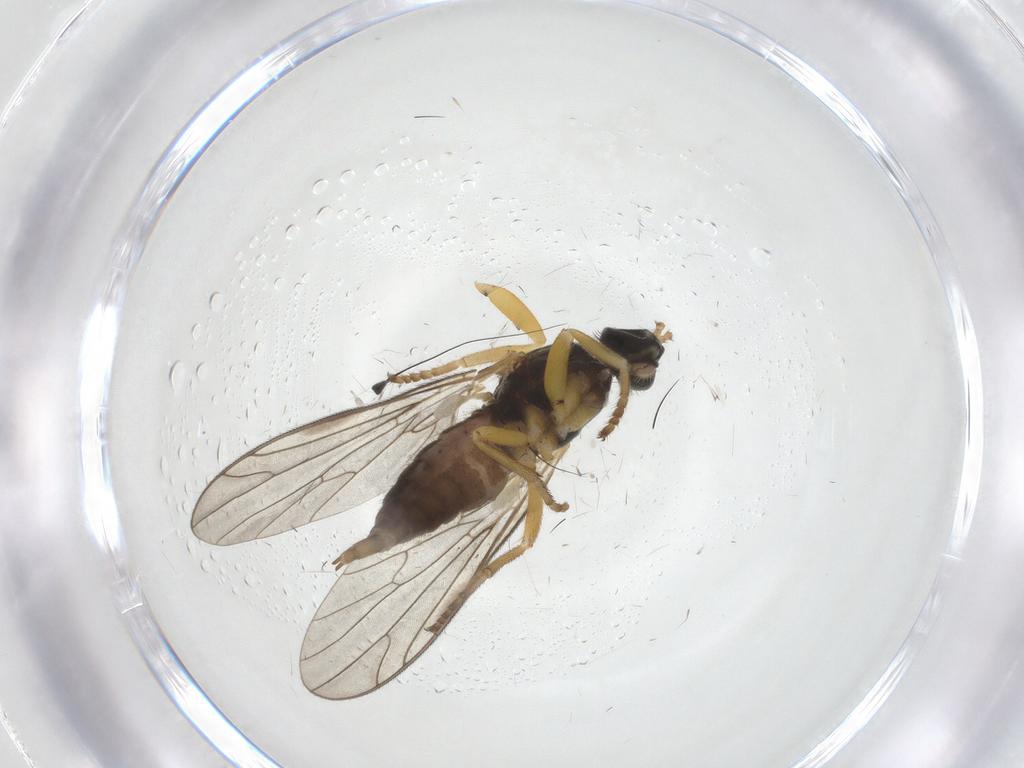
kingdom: Animalia
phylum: Arthropoda
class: Insecta
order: Diptera
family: Empididae
